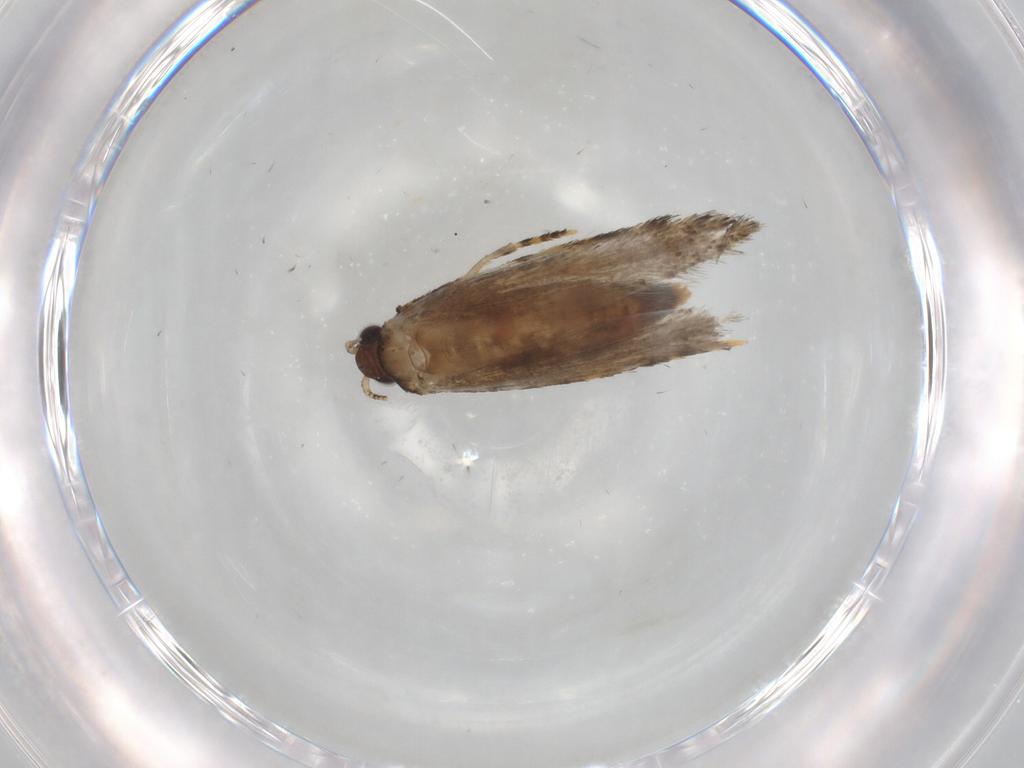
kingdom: Animalia
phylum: Arthropoda
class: Insecta
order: Lepidoptera
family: Tineidae
